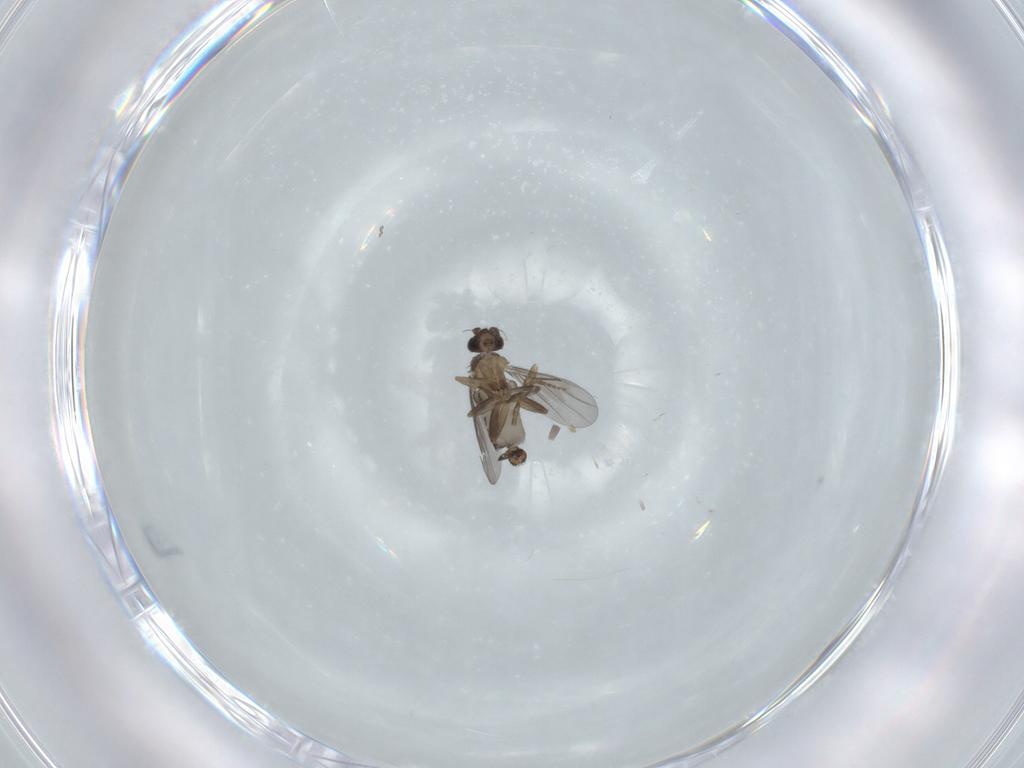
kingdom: Animalia
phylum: Arthropoda
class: Insecta
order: Diptera
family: Phoridae
